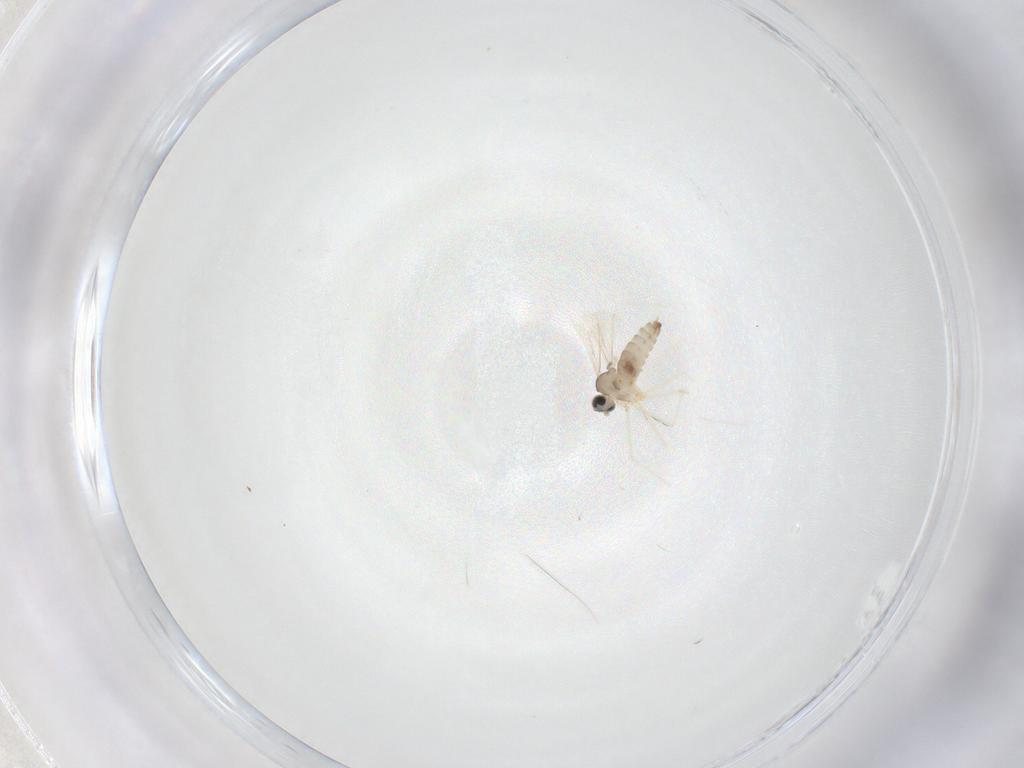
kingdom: Animalia
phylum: Arthropoda
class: Insecta
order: Diptera
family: Cecidomyiidae
